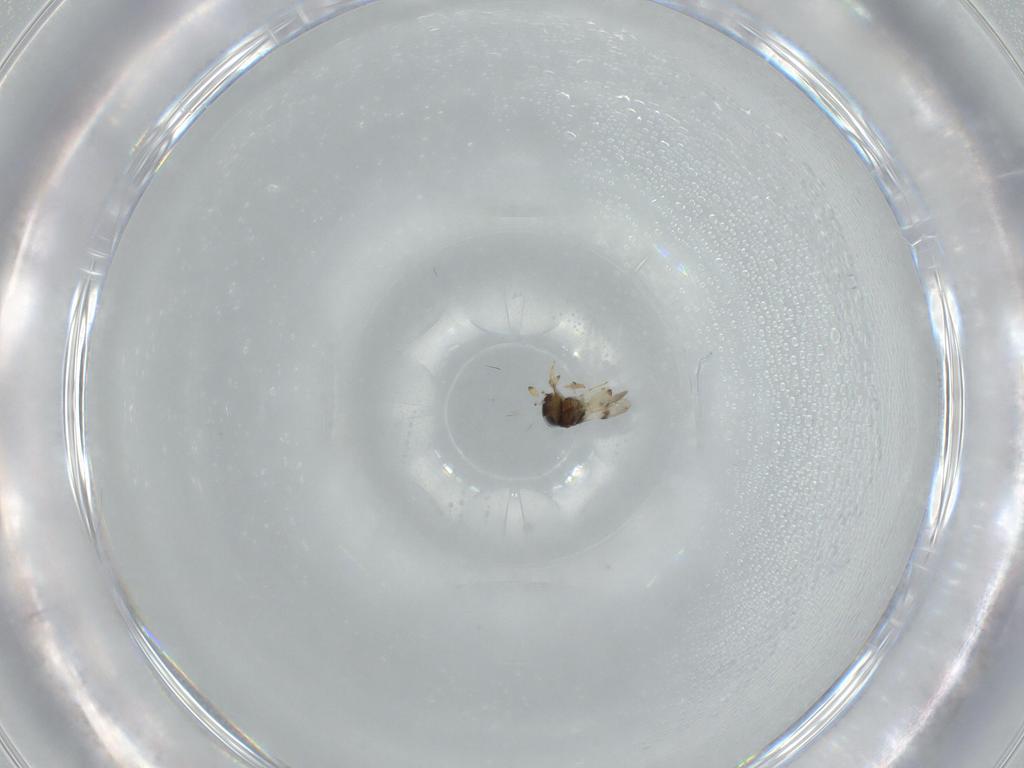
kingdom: Animalia
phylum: Arthropoda
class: Insecta
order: Hymenoptera
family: Scelionidae
